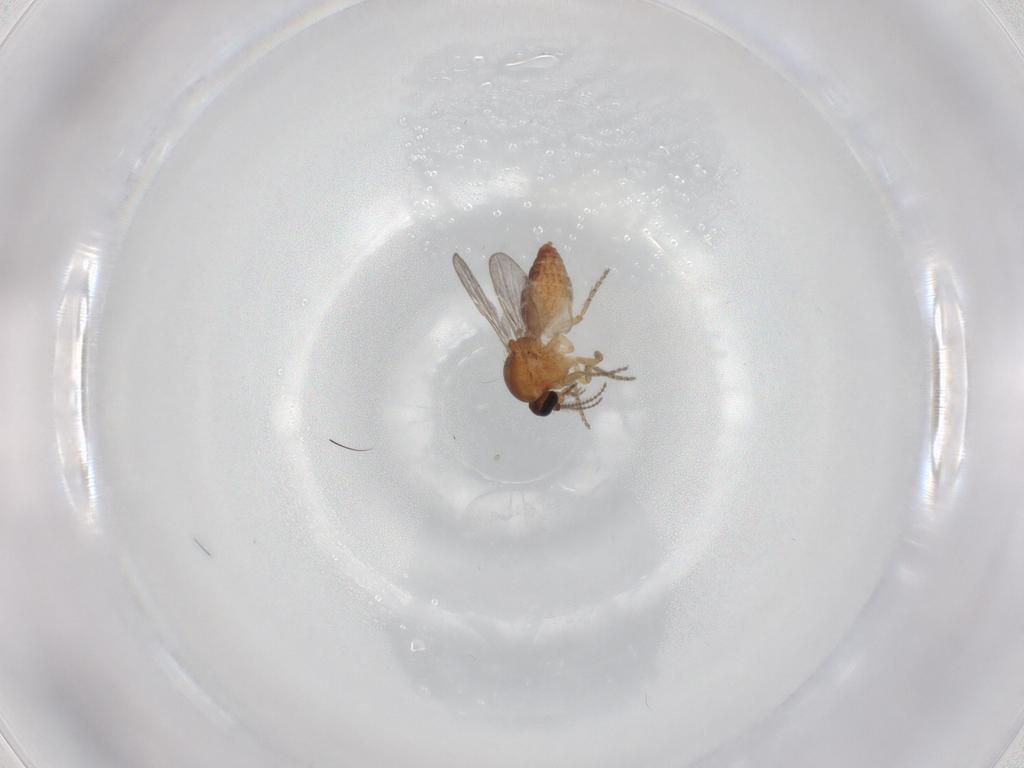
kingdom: Animalia
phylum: Arthropoda
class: Insecta
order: Diptera
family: Ceratopogonidae
